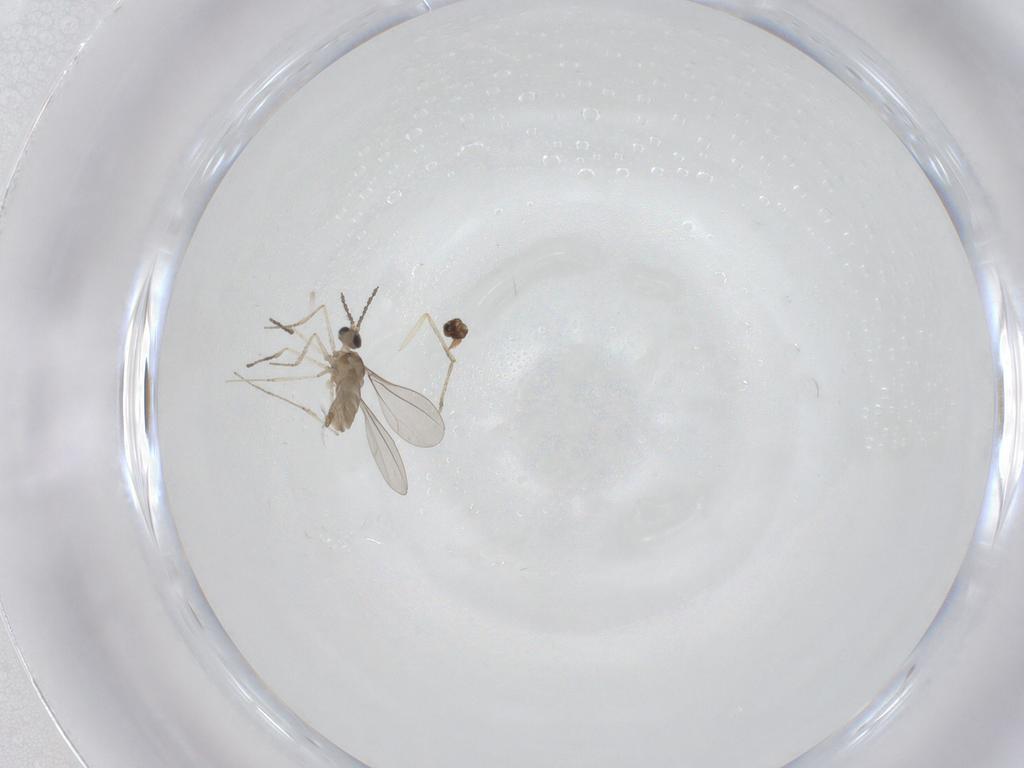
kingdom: Animalia
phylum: Arthropoda
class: Insecta
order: Diptera
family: Cecidomyiidae
